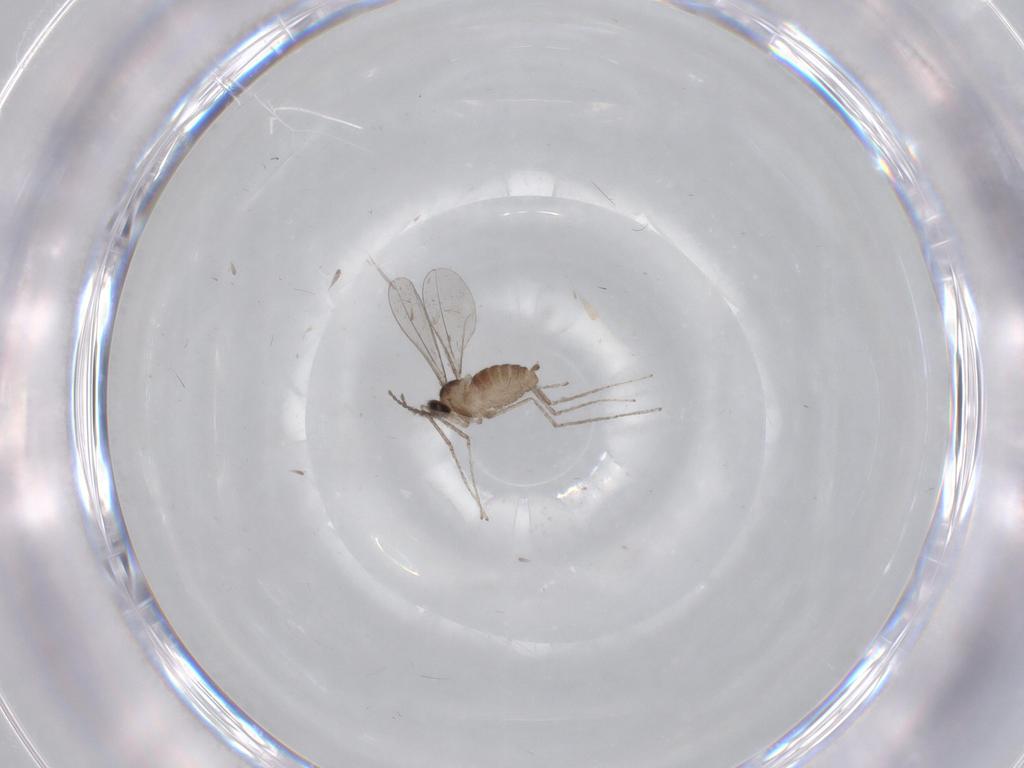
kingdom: Animalia
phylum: Arthropoda
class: Insecta
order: Diptera
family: Cecidomyiidae
